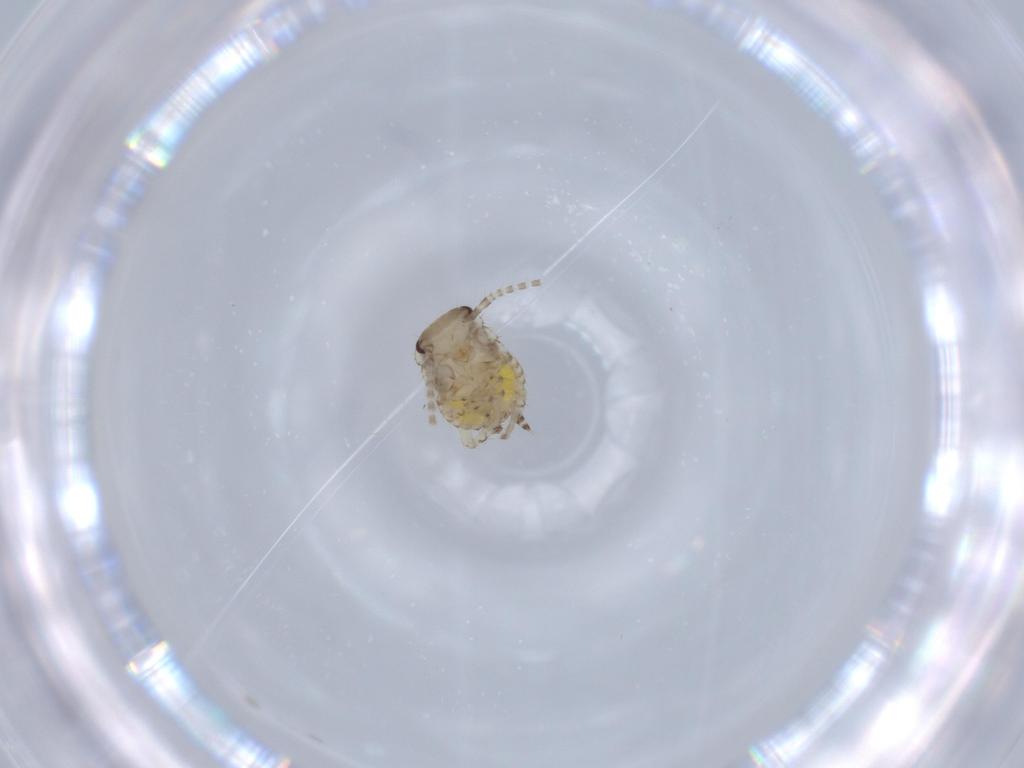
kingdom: Animalia
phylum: Arthropoda
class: Insecta
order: Blattodea
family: Ectobiidae
